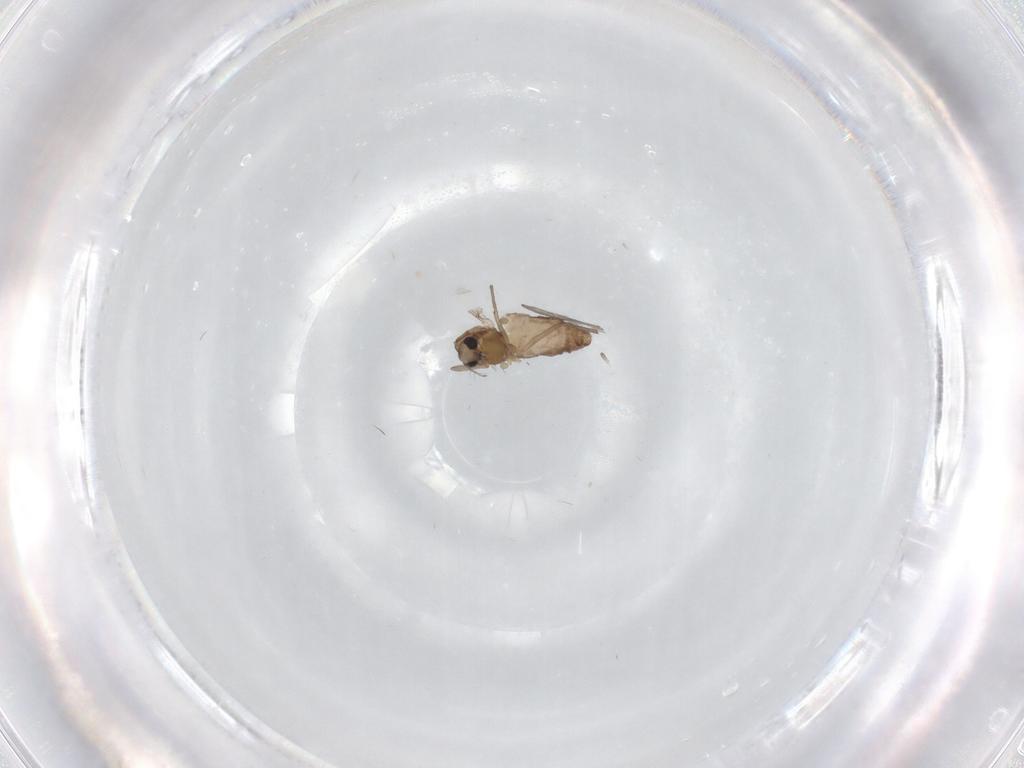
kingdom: Animalia
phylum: Arthropoda
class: Insecta
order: Diptera
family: Chironomidae
